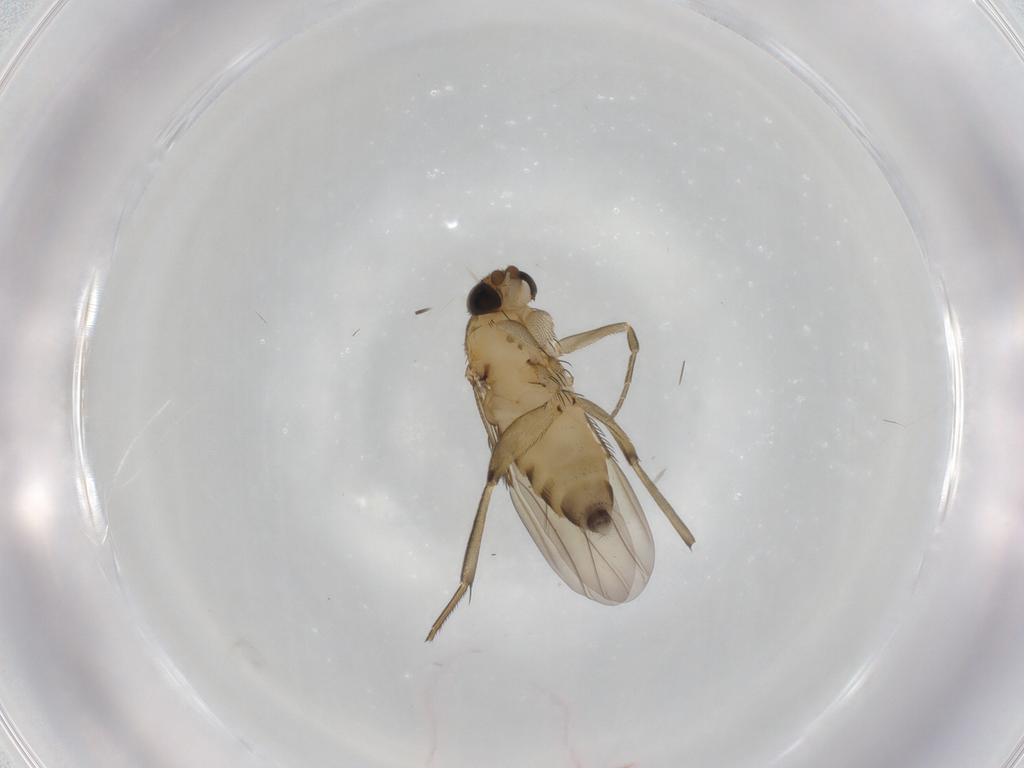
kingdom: Animalia
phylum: Arthropoda
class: Insecta
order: Diptera
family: Phoridae
